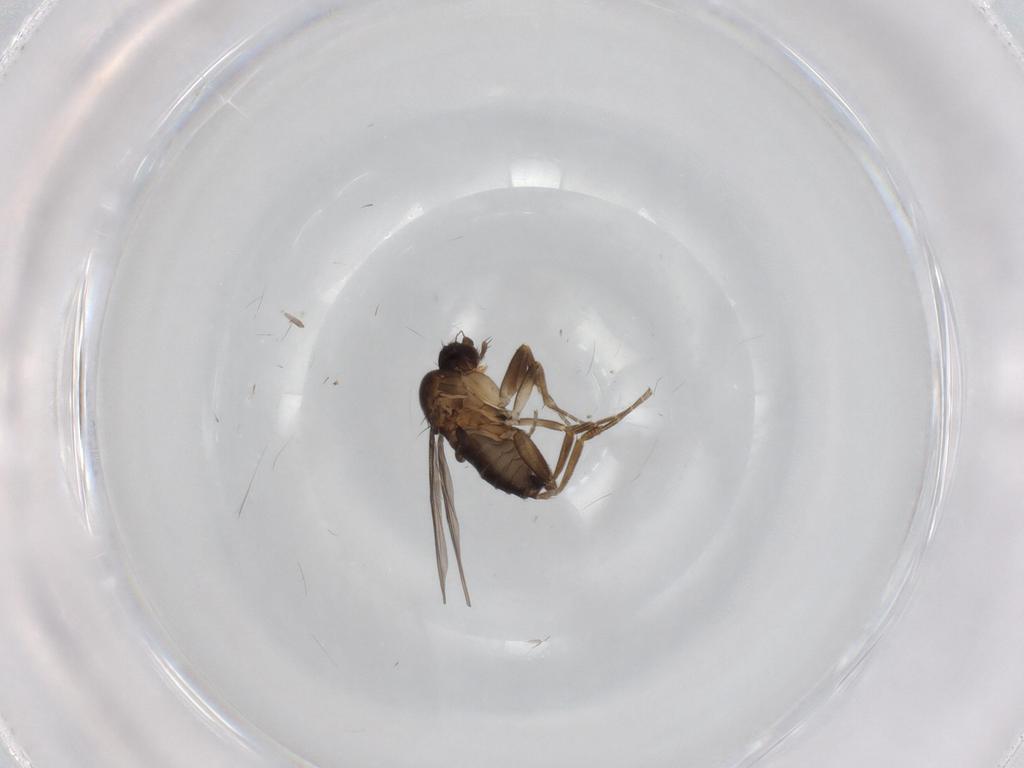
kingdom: Animalia
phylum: Arthropoda
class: Insecta
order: Diptera
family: Phoridae
